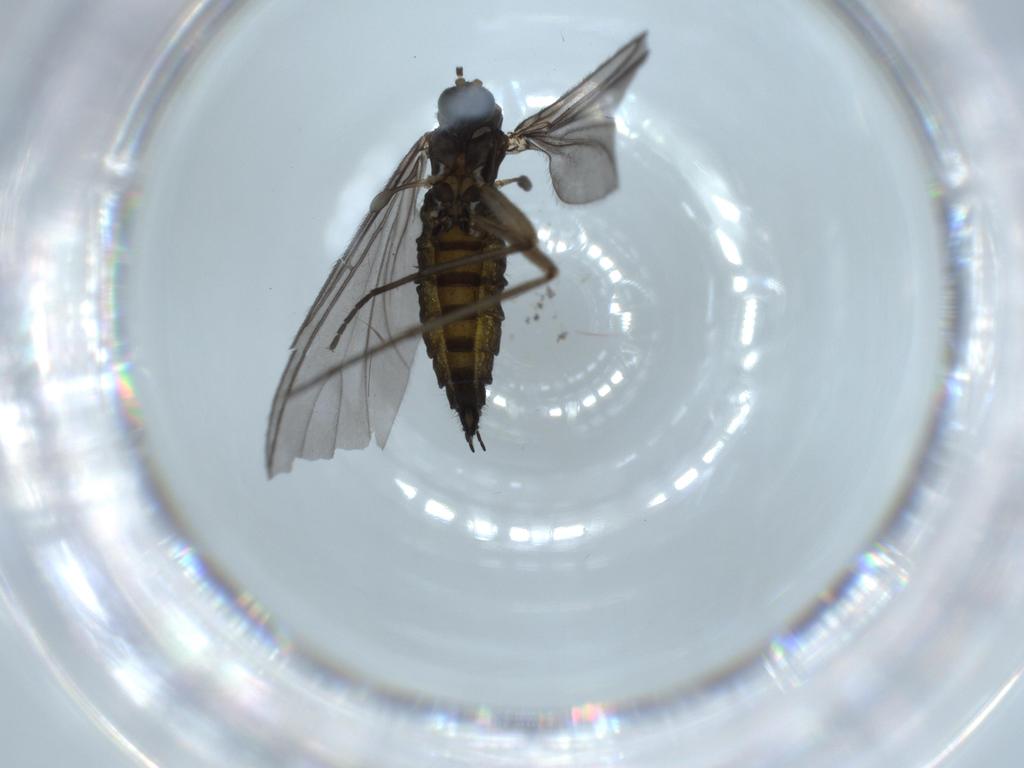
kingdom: Animalia
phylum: Arthropoda
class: Insecta
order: Diptera
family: Sciaridae
